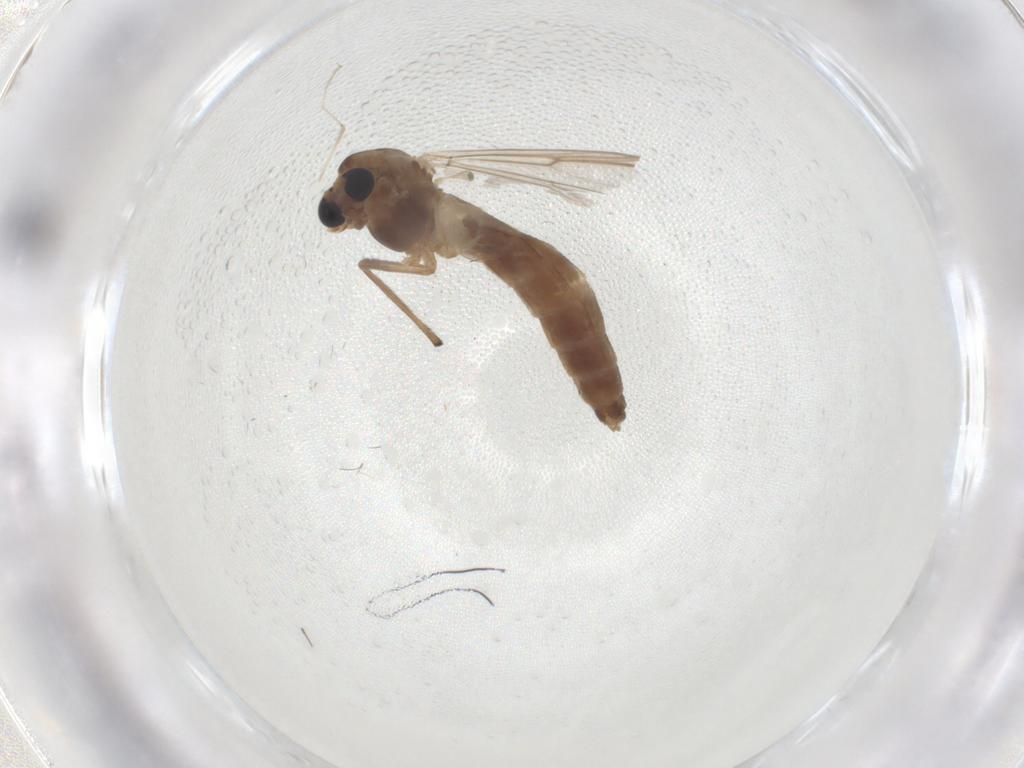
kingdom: Animalia
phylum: Arthropoda
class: Insecta
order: Diptera
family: Chironomidae
